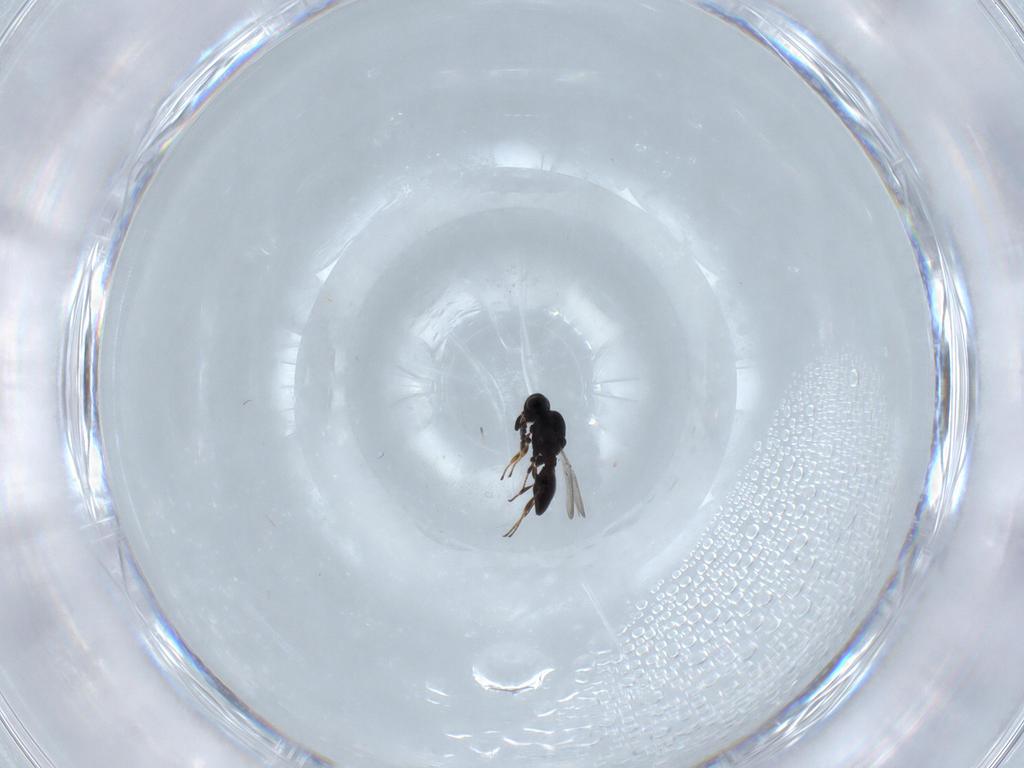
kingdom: Animalia
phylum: Arthropoda
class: Insecta
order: Hymenoptera
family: Platygastridae
